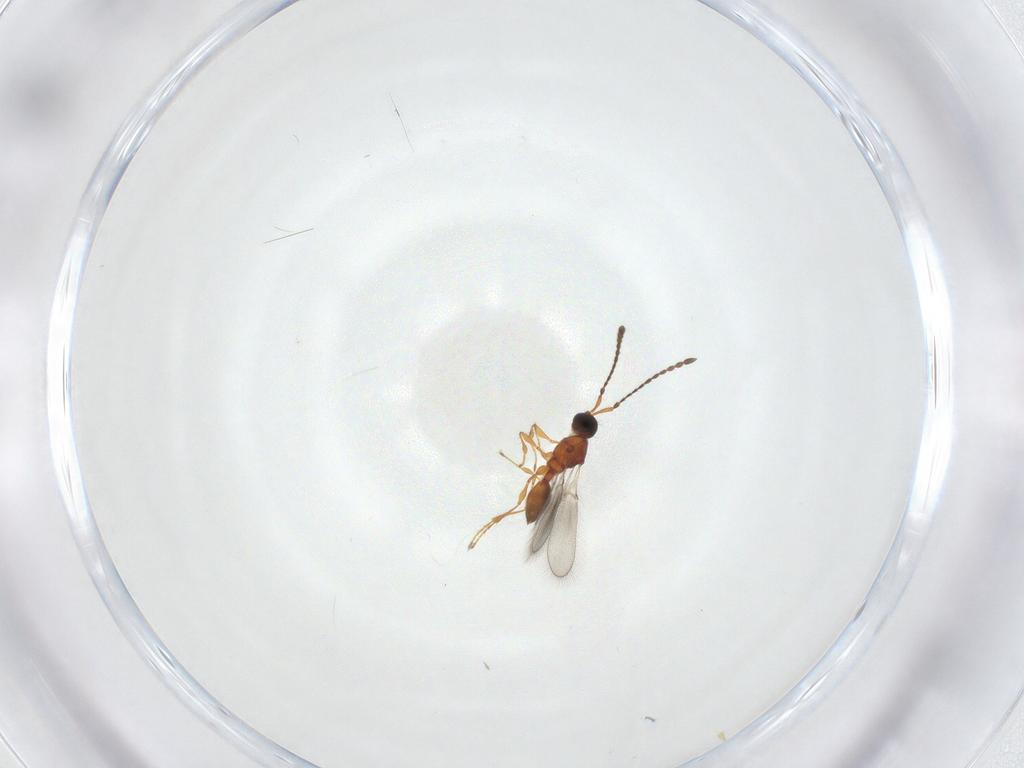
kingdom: Animalia
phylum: Arthropoda
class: Insecta
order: Hymenoptera
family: Diapriidae
